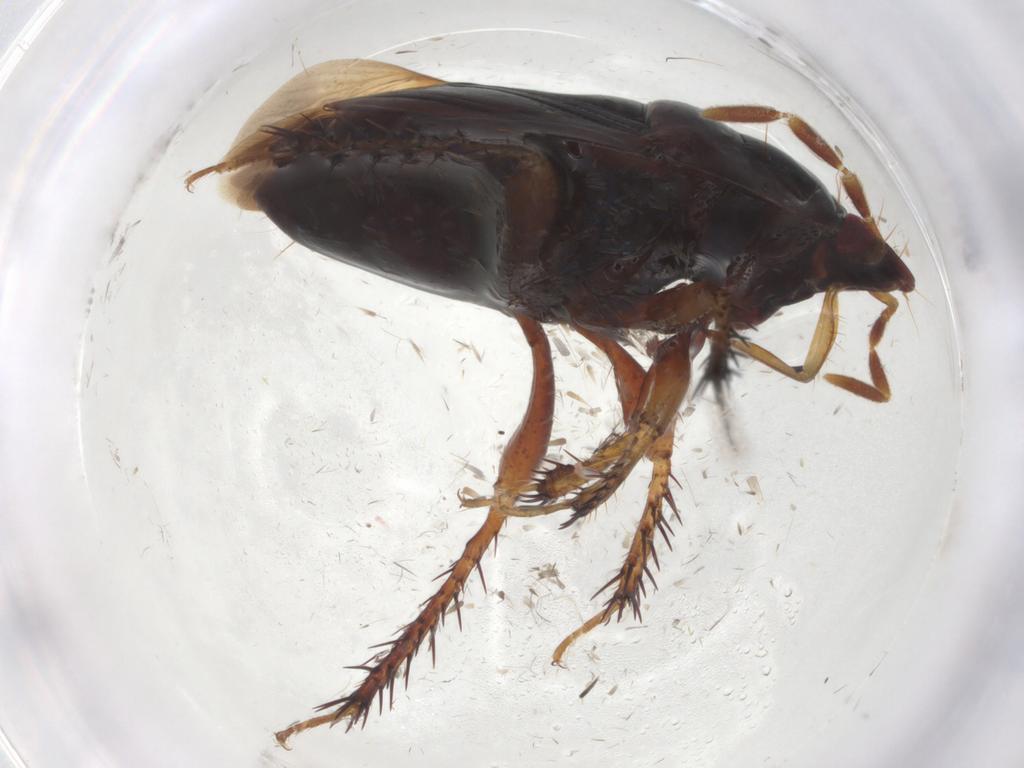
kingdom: Animalia
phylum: Arthropoda
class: Insecta
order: Hemiptera
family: Cydnidae
